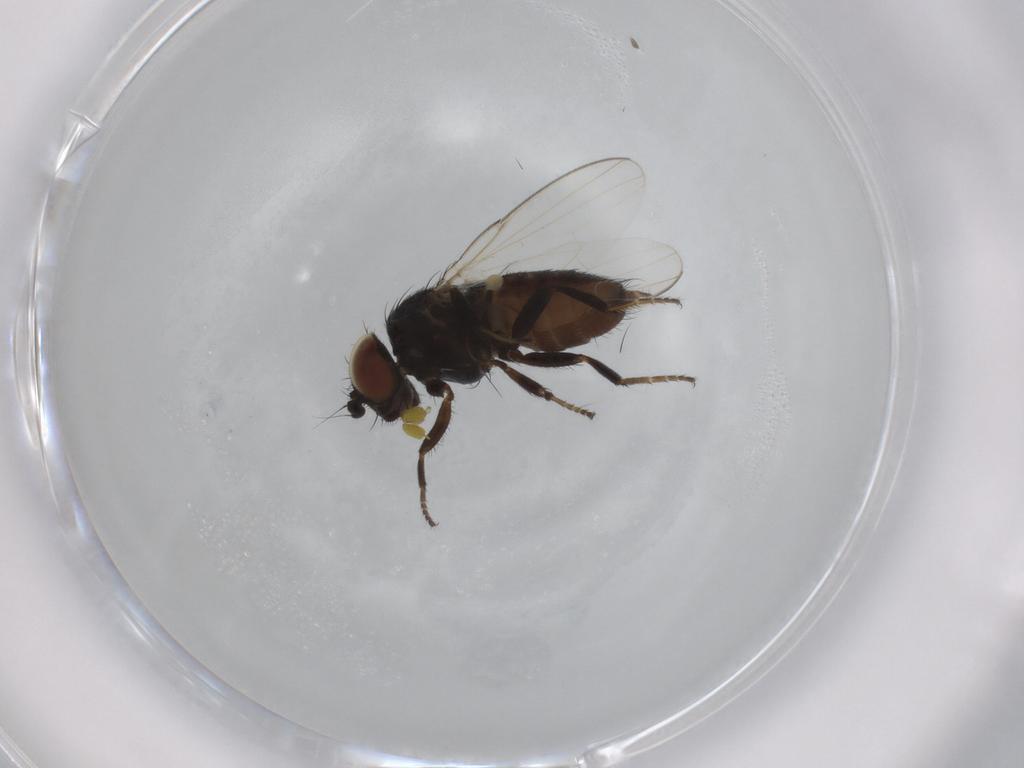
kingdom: Animalia
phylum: Arthropoda
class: Insecta
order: Diptera
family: Milichiidae
